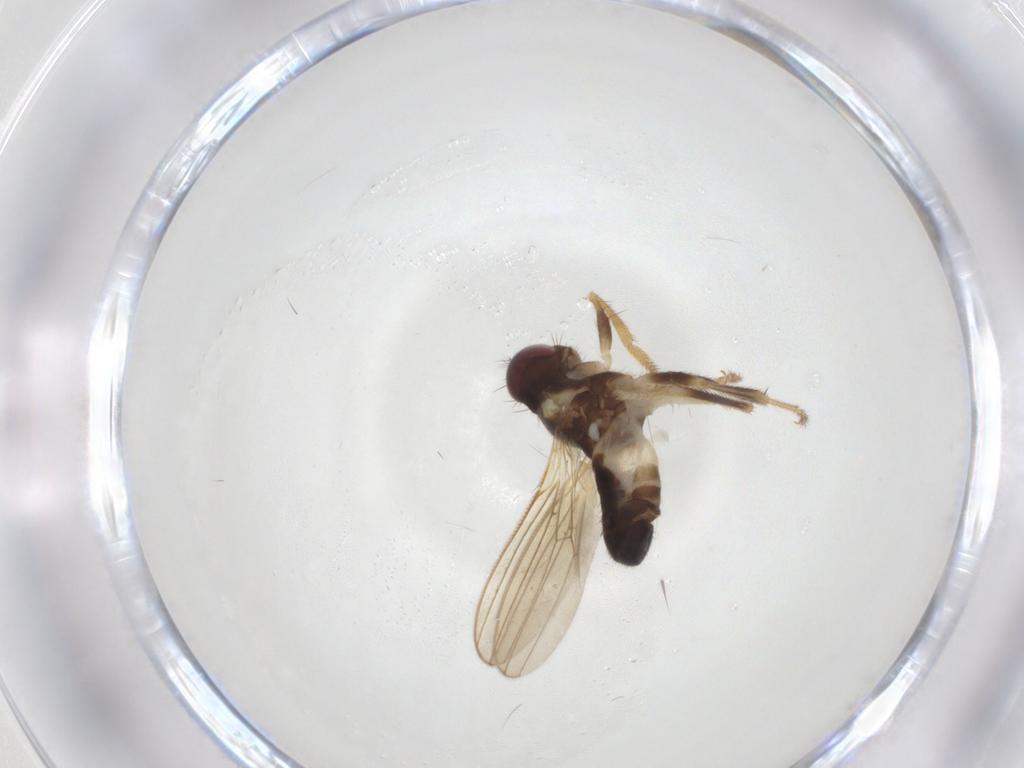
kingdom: Animalia
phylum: Arthropoda
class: Insecta
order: Diptera
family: Periscelididae
